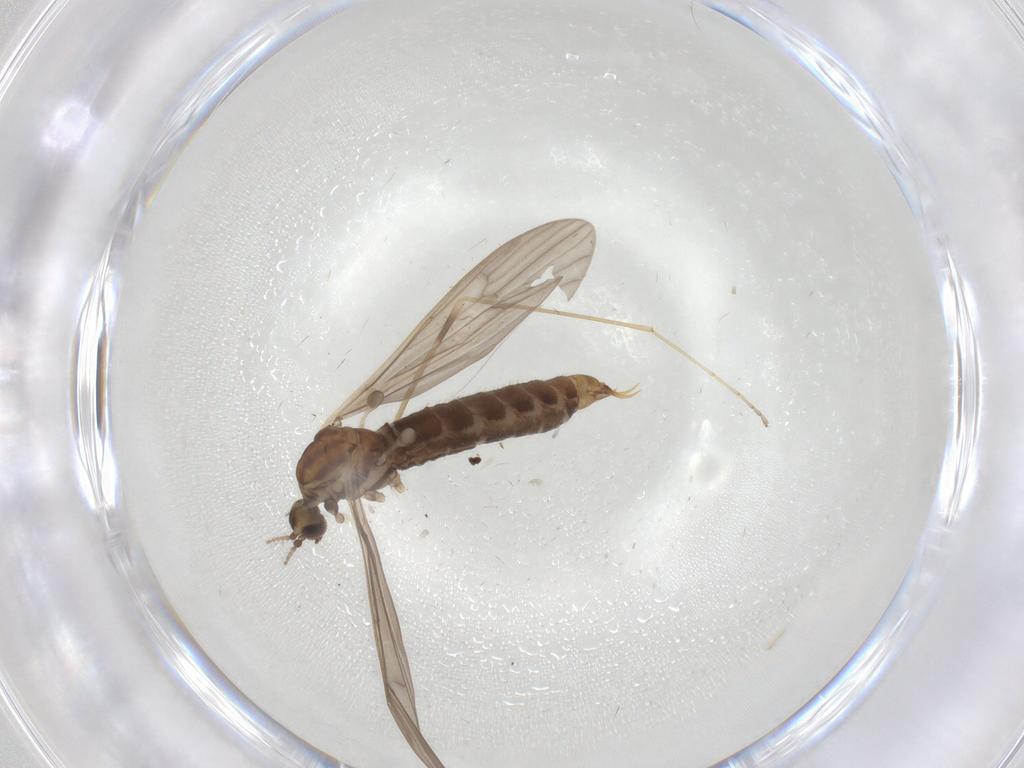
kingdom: Animalia
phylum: Arthropoda
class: Insecta
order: Diptera
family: Limoniidae
